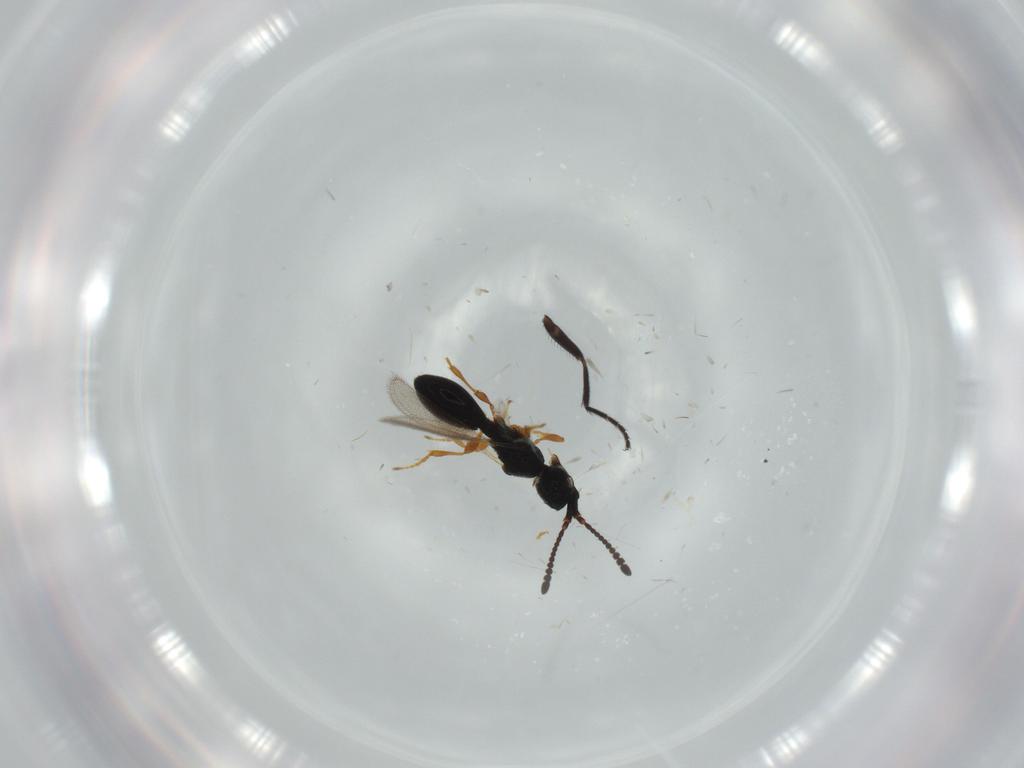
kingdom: Animalia
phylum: Arthropoda
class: Insecta
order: Hymenoptera
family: Diapriidae
